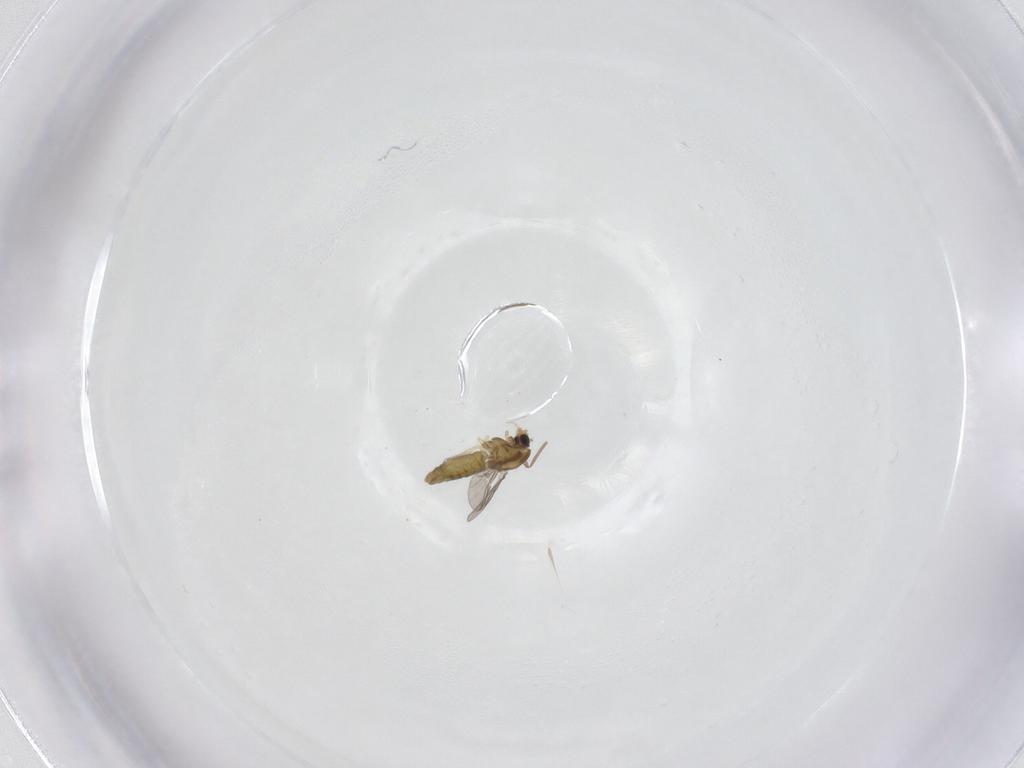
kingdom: Animalia
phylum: Arthropoda
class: Insecta
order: Diptera
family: Chironomidae
